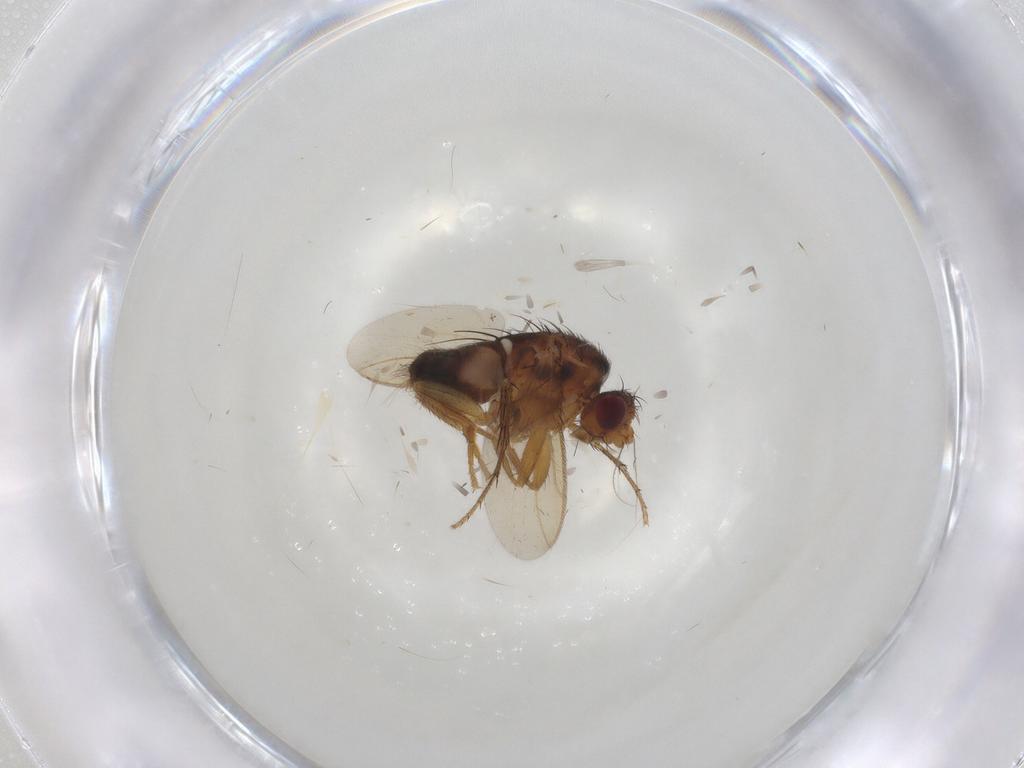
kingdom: Animalia
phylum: Arthropoda
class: Insecta
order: Diptera
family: Sphaeroceridae
